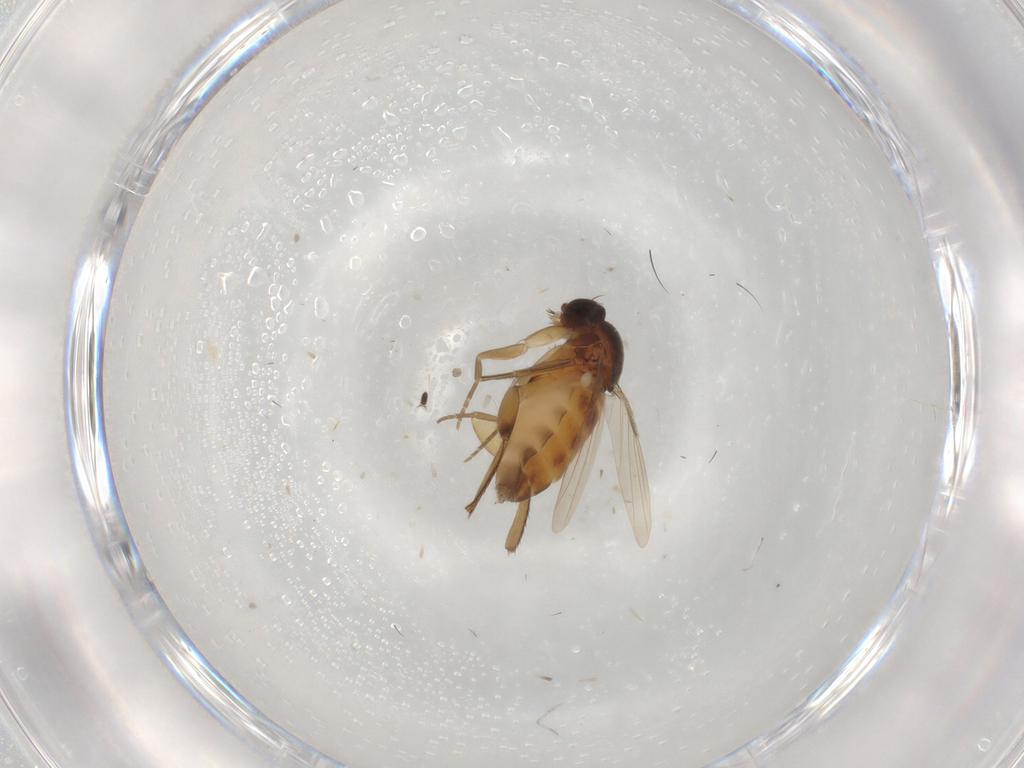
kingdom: Animalia
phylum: Arthropoda
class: Insecta
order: Diptera
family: Phoridae
